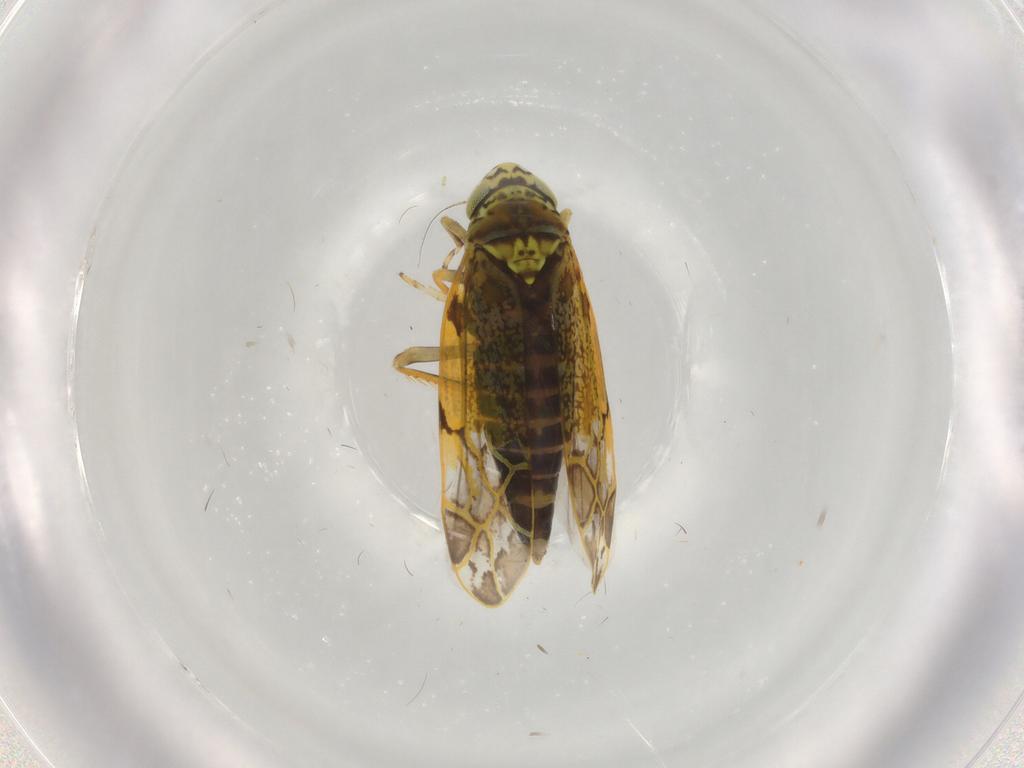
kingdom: Animalia
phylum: Arthropoda
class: Insecta
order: Hemiptera
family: Cicadellidae
